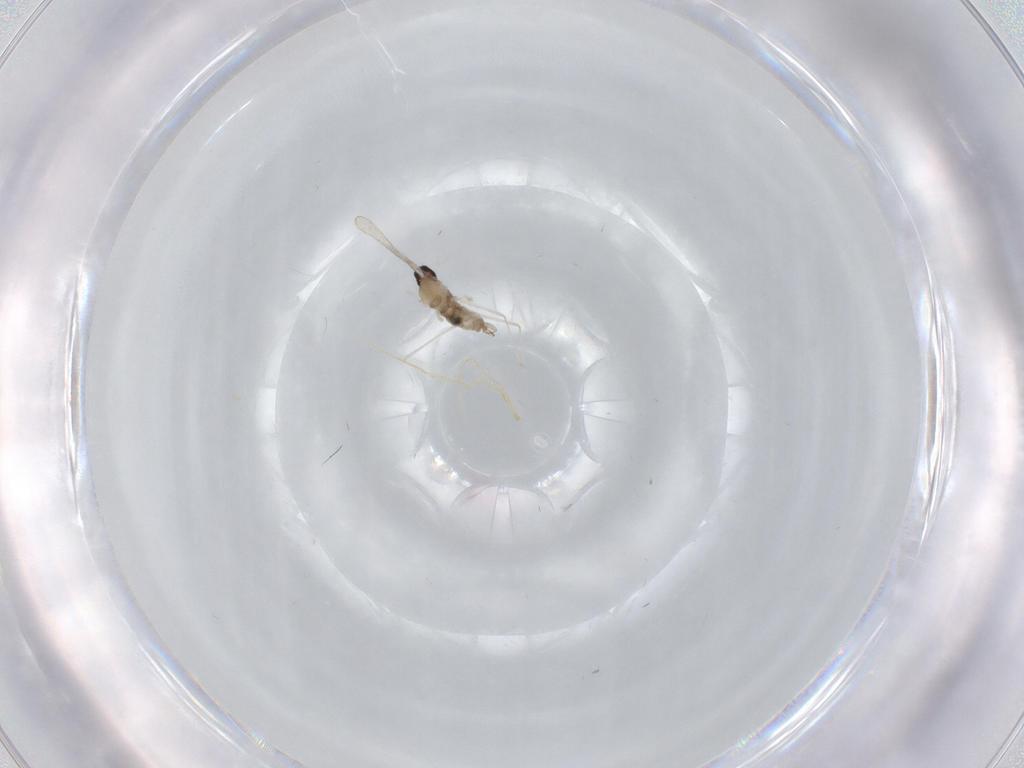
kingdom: Animalia
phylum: Arthropoda
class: Insecta
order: Diptera
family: Cecidomyiidae
